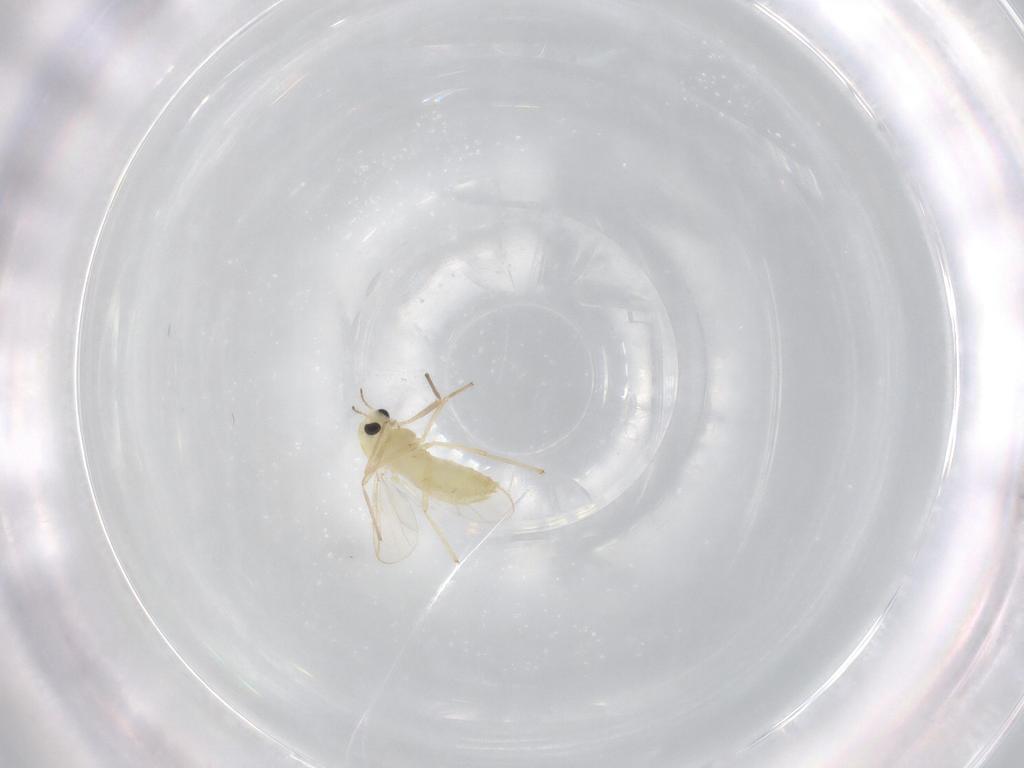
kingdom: Animalia
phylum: Arthropoda
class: Insecta
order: Diptera
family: Chironomidae
